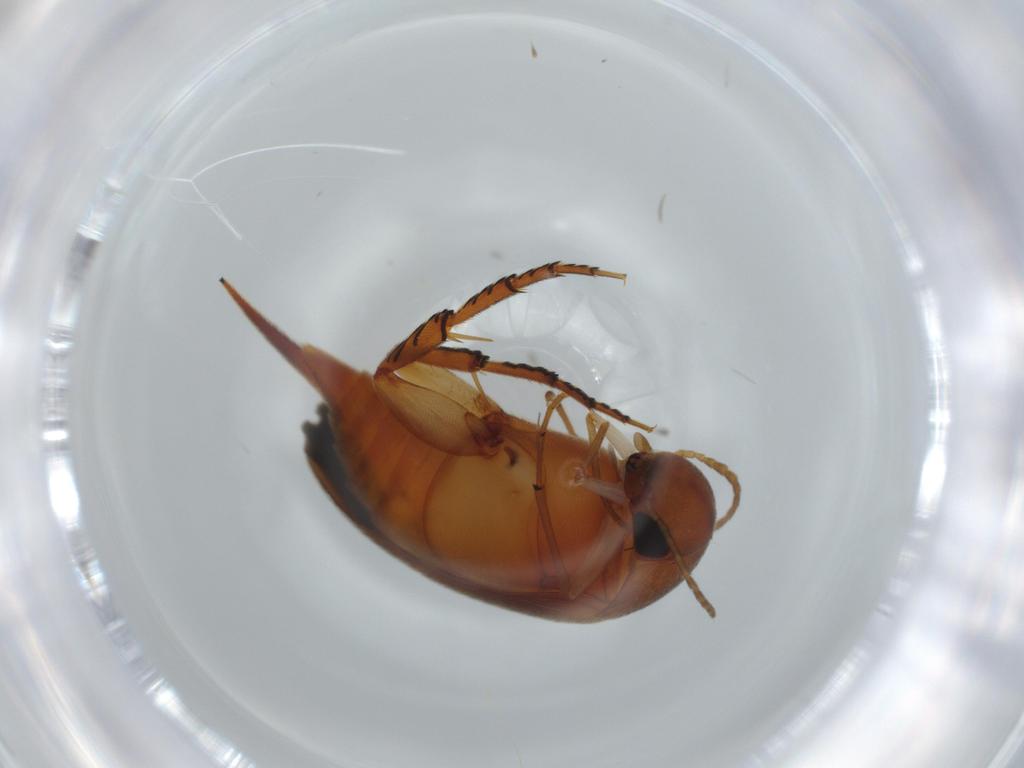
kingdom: Animalia
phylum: Arthropoda
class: Insecta
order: Coleoptera
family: Mordellidae
